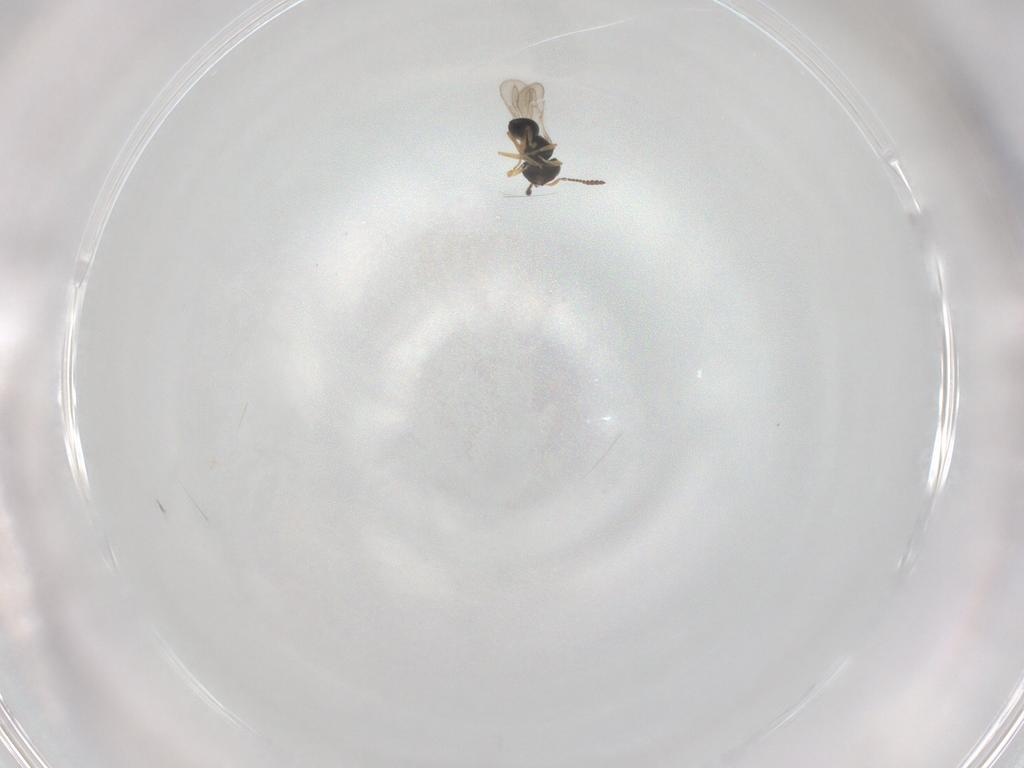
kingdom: Animalia
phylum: Arthropoda
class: Insecta
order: Hymenoptera
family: Scelionidae
